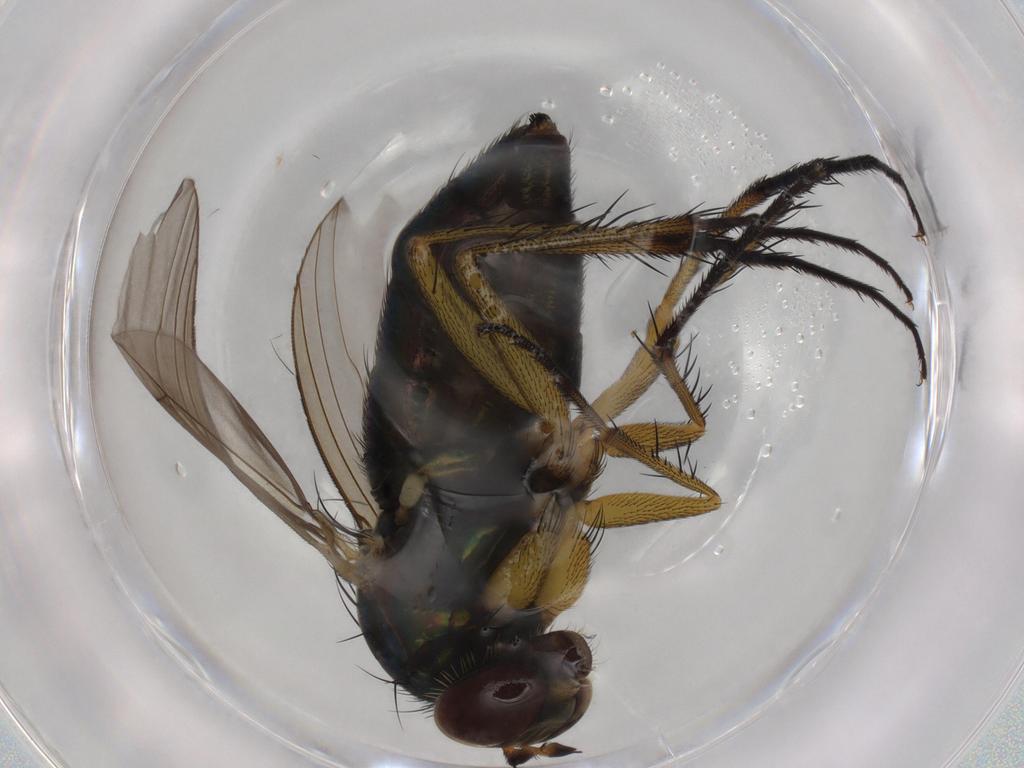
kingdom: Animalia
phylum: Arthropoda
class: Insecta
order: Diptera
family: Dolichopodidae
